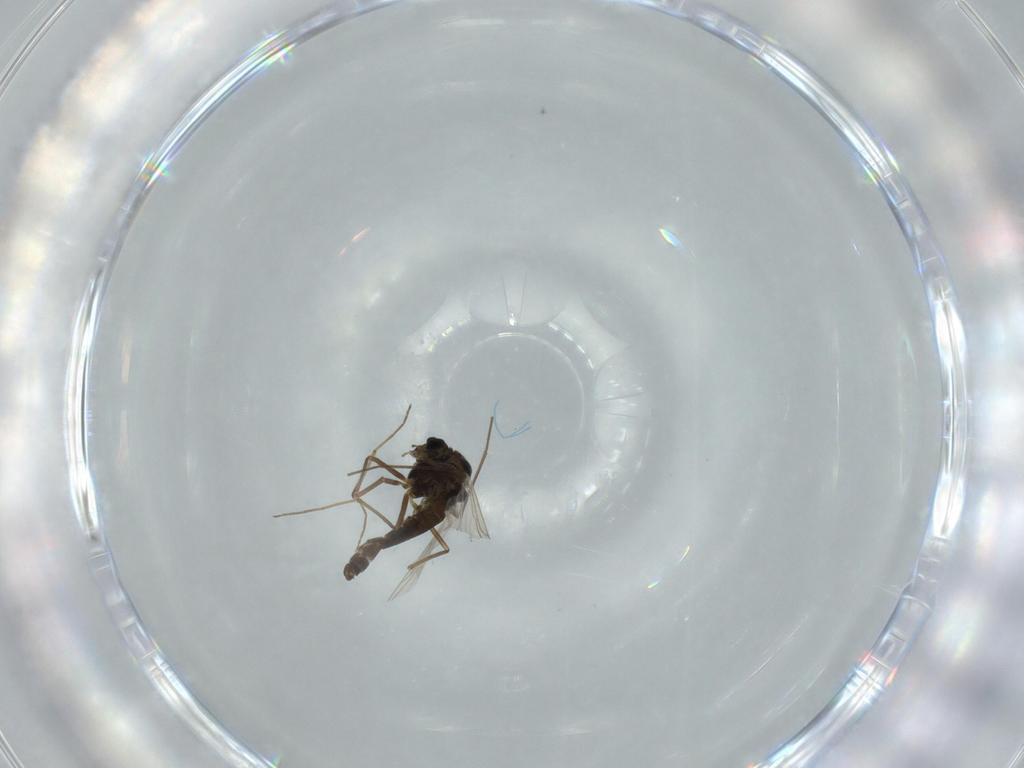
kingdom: Animalia
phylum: Arthropoda
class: Insecta
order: Diptera
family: Chironomidae
